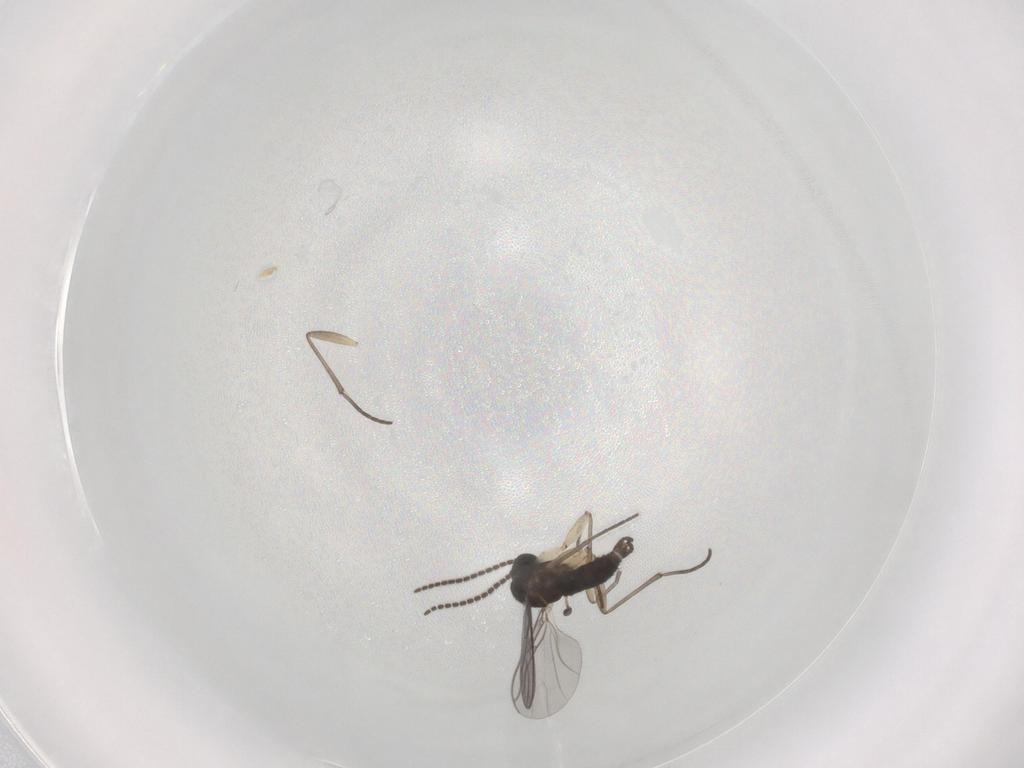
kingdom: Animalia
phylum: Arthropoda
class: Insecta
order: Diptera
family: Sciaridae
